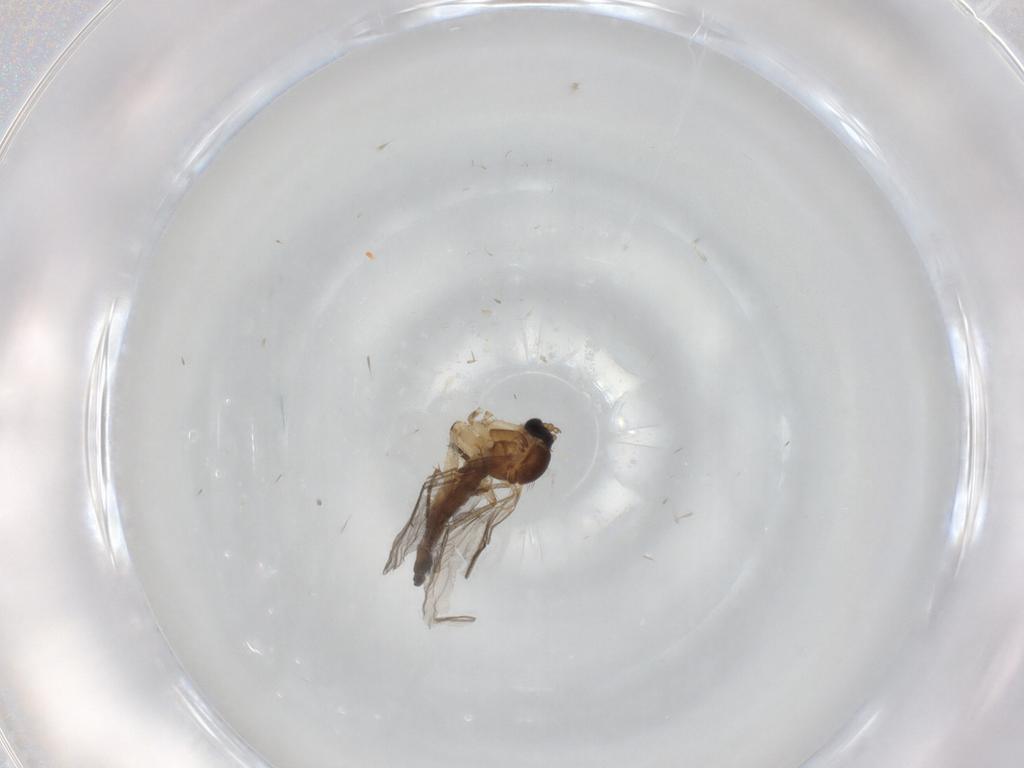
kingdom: Animalia
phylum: Arthropoda
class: Insecta
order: Diptera
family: Sciaridae
